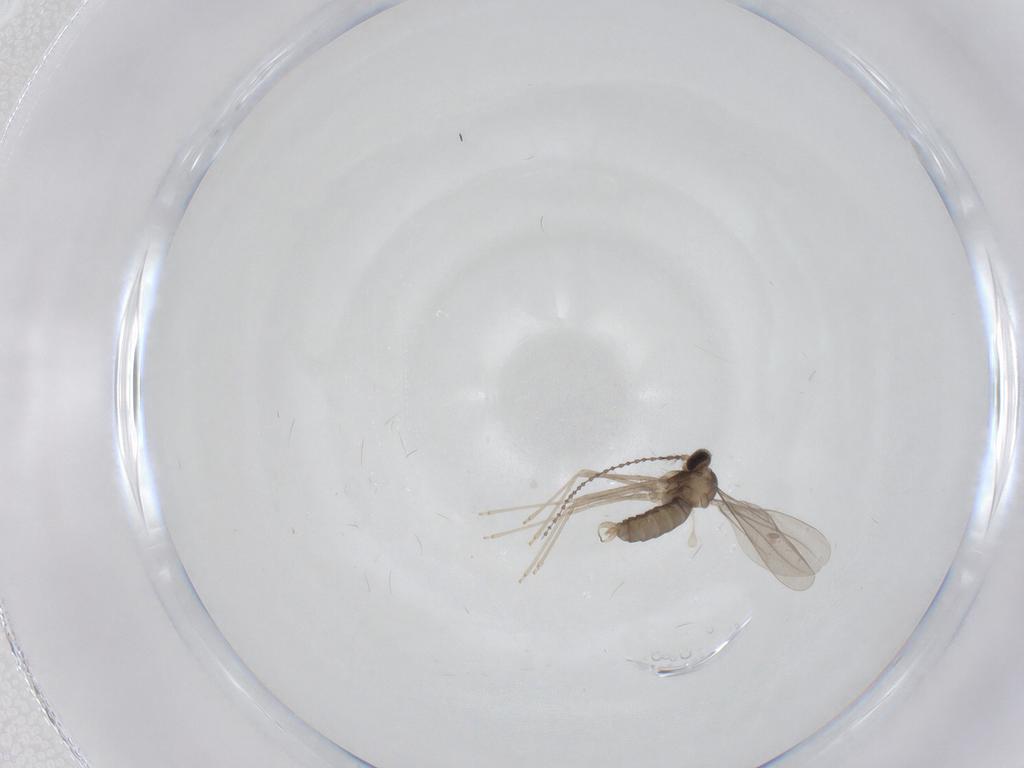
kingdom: Animalia
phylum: Arthropoda
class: Insecta
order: Diptera
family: Cecidomyiidae
